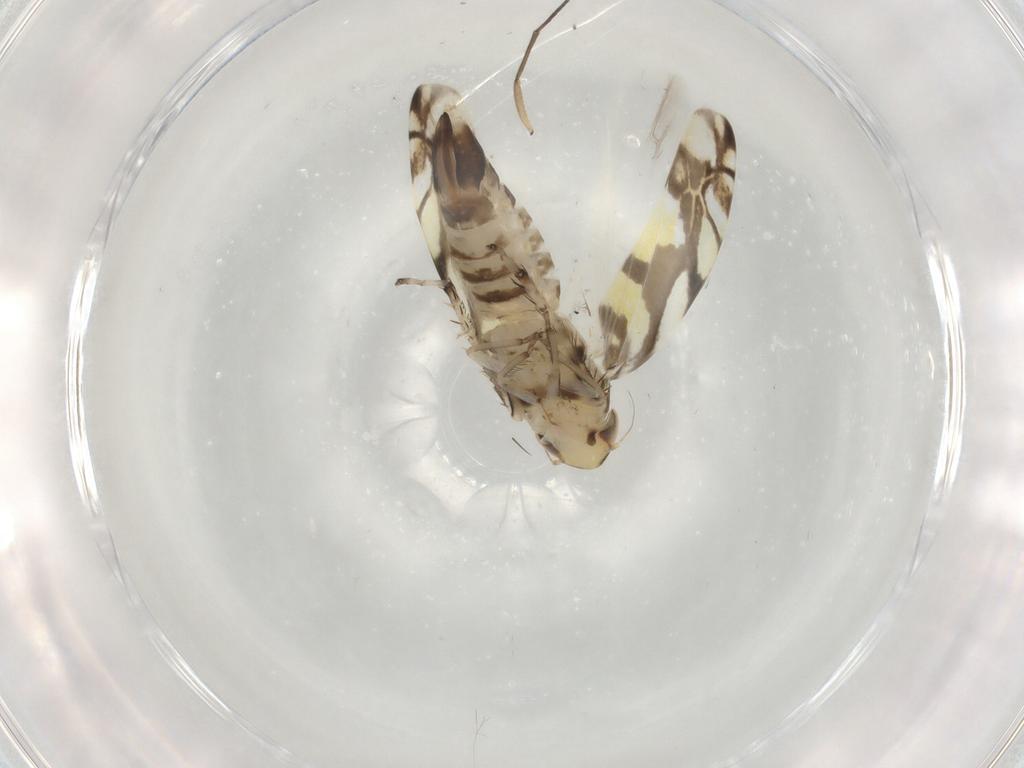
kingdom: Animalia
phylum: Arthropoda
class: Insecta
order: Hemiptera
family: Cicadellidae
